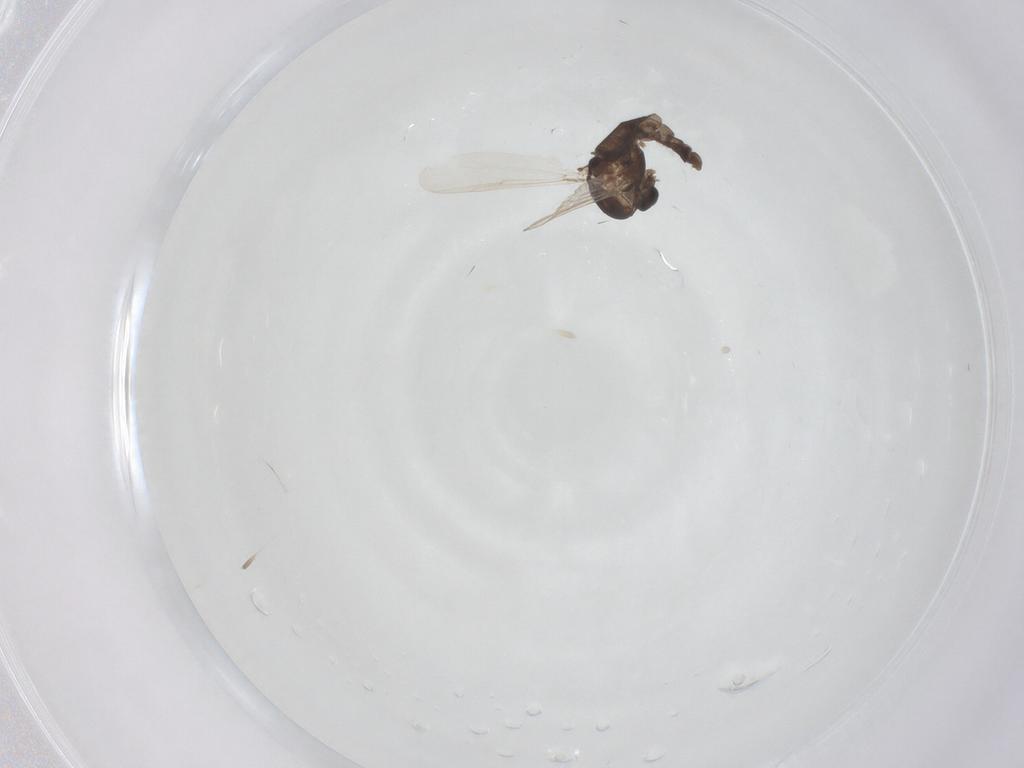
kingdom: Animalia
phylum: Arthropoda
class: Insecta
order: Diptera
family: Chironomidae
